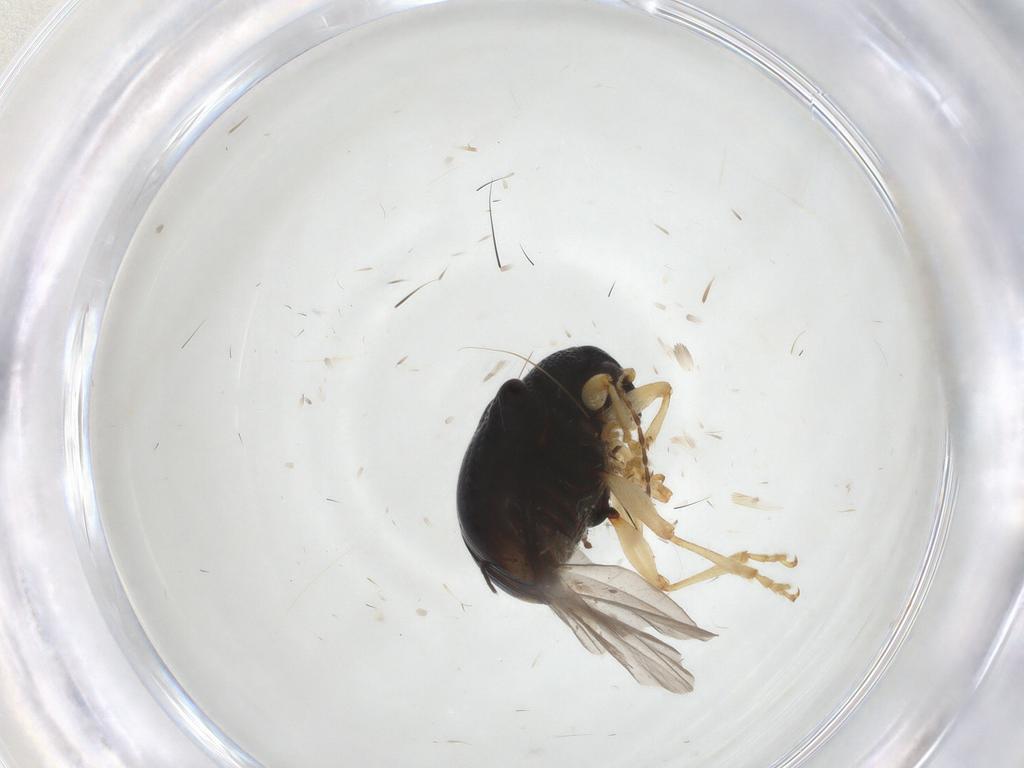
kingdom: Animalia
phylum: Arthropoda
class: Insecta
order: Coleoptera
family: Chrysomelidae
